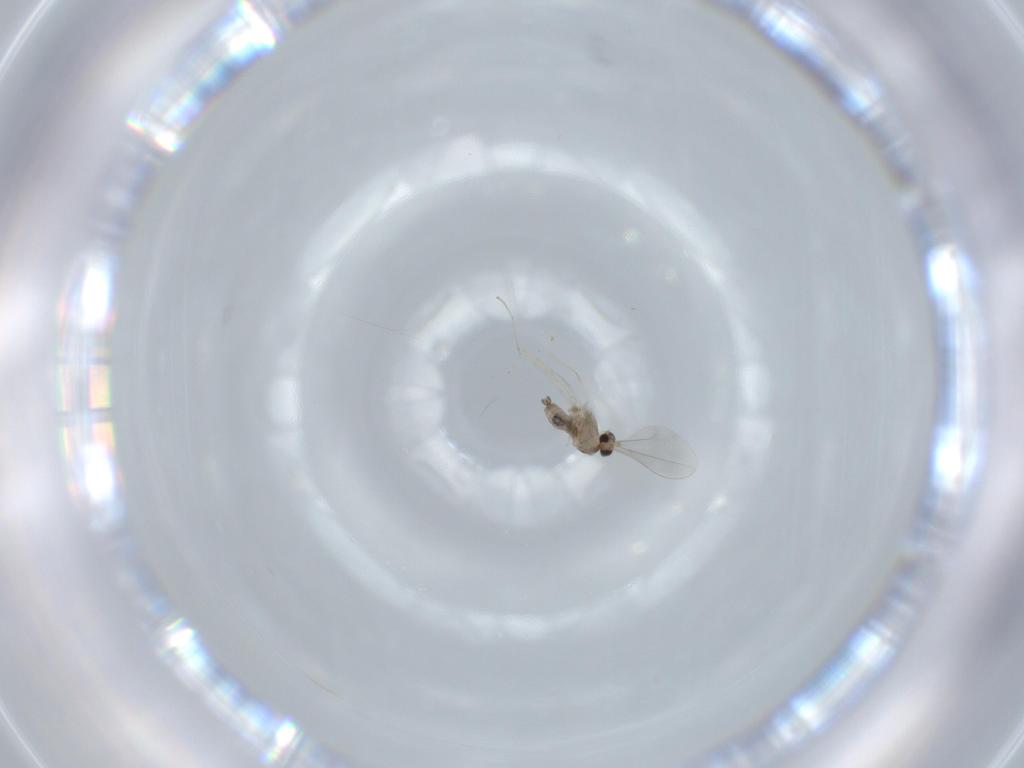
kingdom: Animalia
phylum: Arthropoda
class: Insecta
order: Diptera
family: Cecidomyiidae
